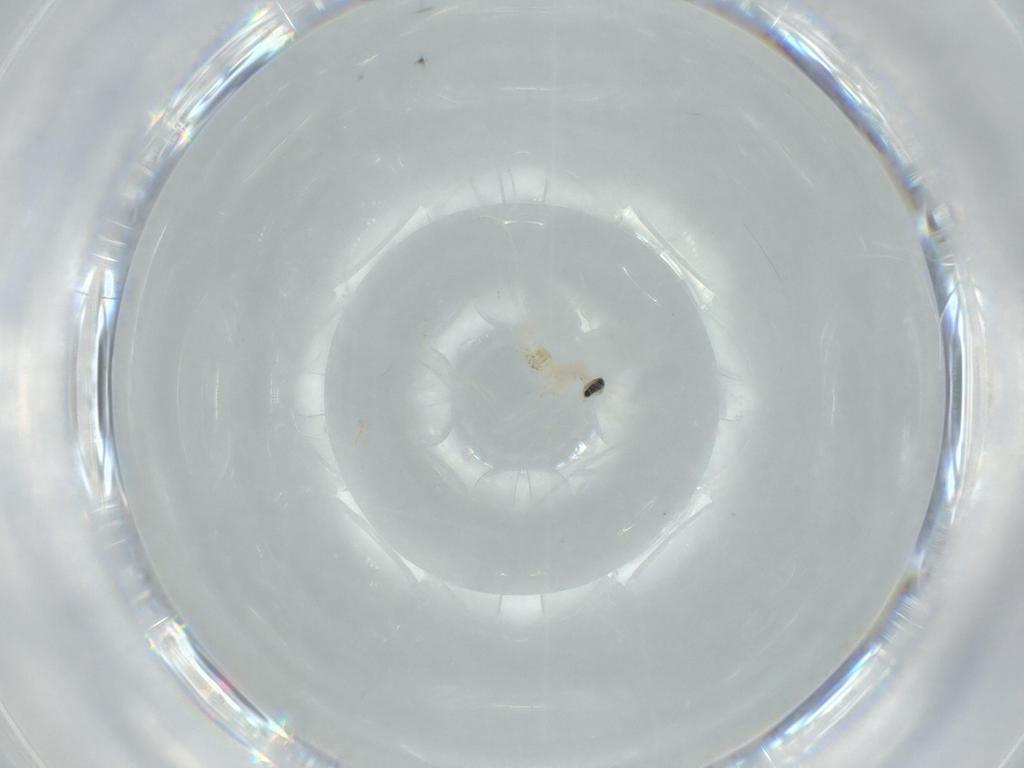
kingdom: Animalia
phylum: Arthropoda
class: Insecta
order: Diptera
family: Cecidomyiidae
